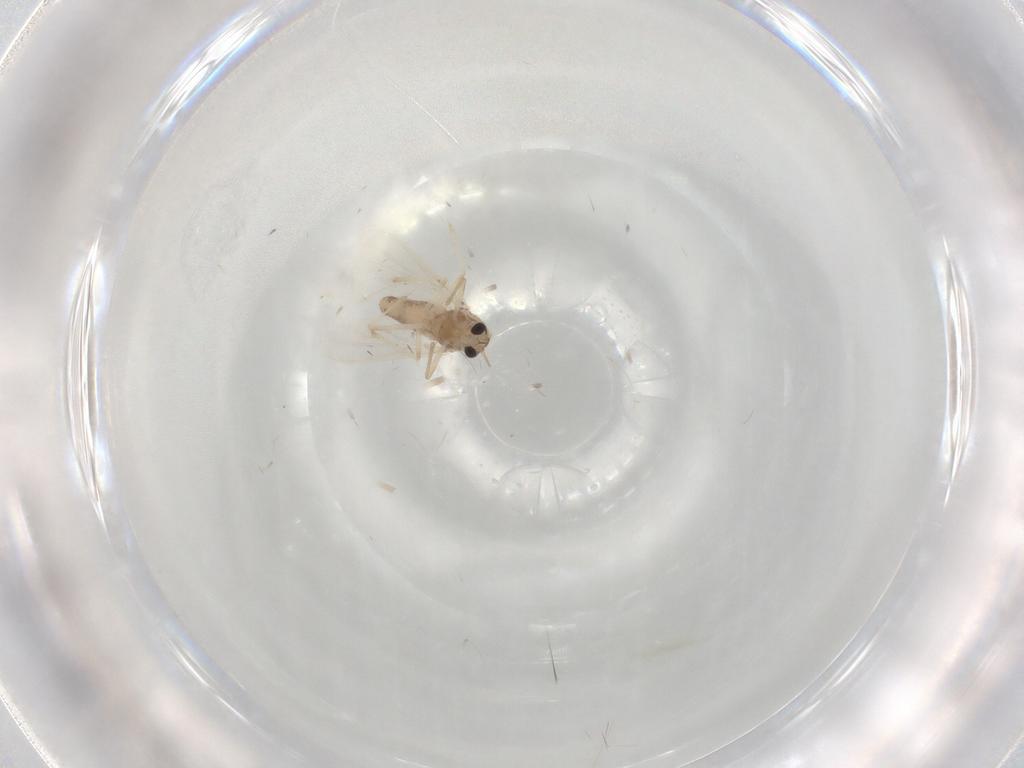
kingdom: Animalia
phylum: Arthropoda
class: Insecta
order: Diptera
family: Chironomidae
